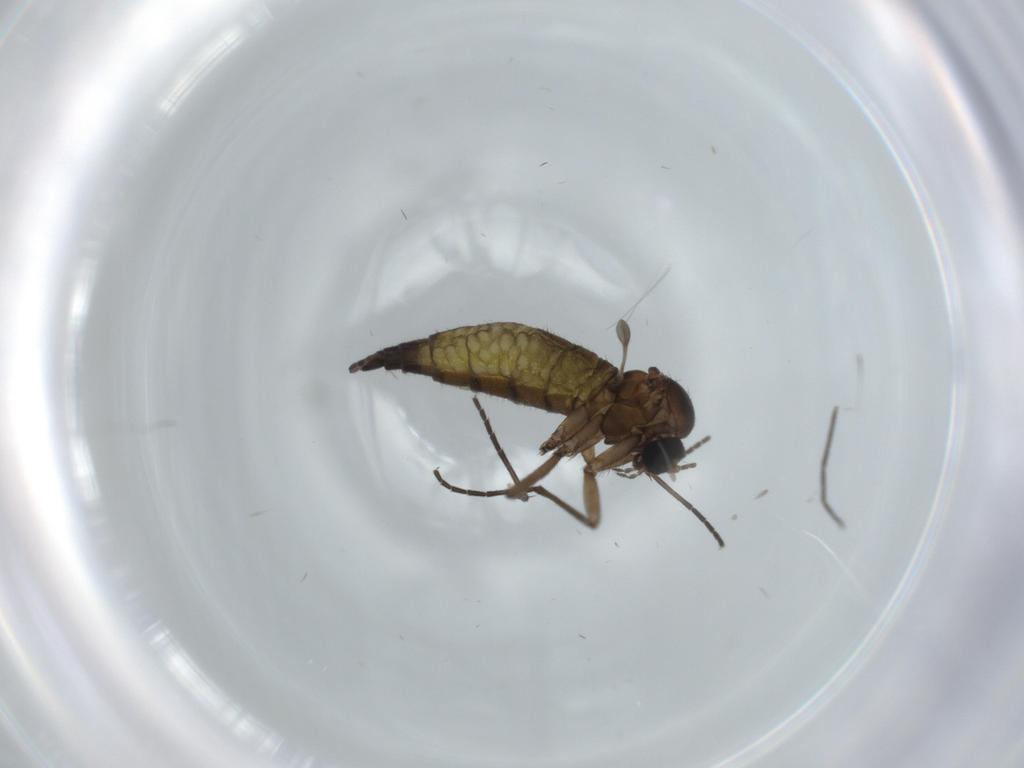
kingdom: Animalia
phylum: Arthropoda
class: Insecta
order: Diptera
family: Sciaridae
